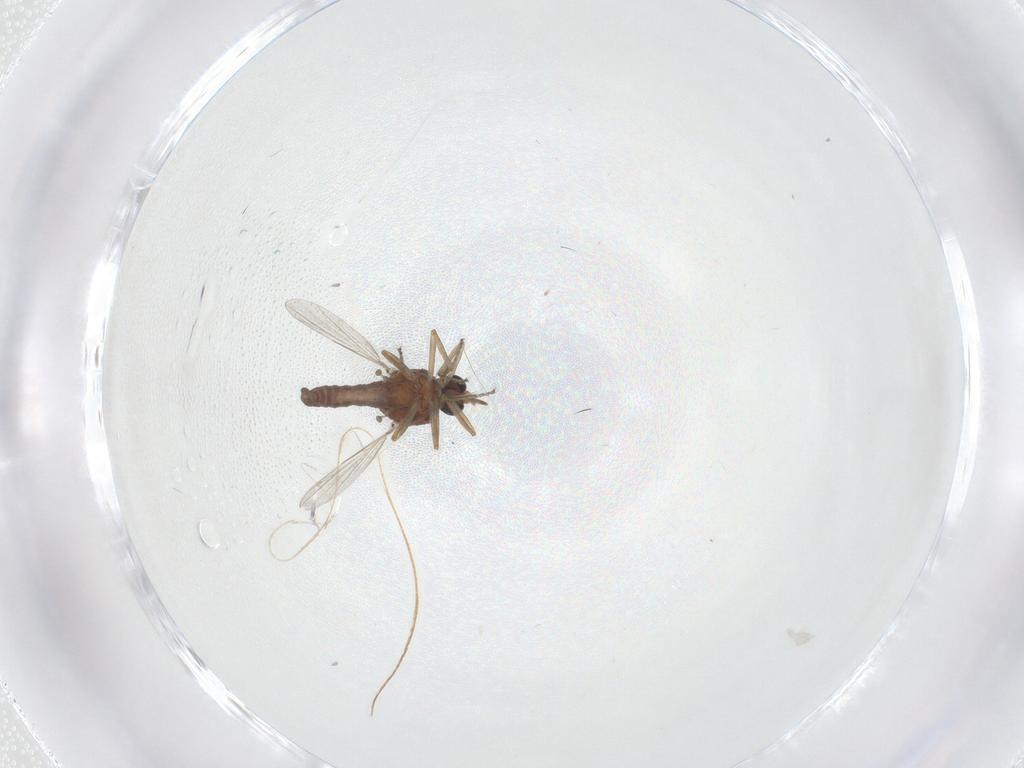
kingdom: Animalia
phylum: Arthropoda
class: Insecta
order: Diptera
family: Ceratopogonidae
